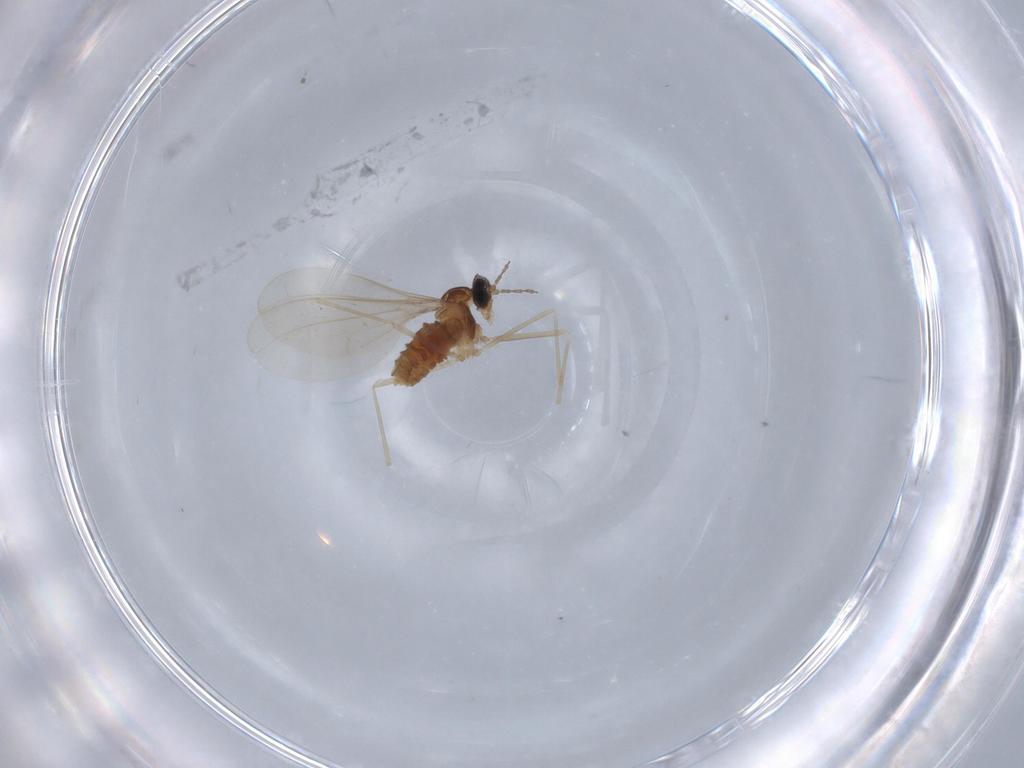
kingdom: Animalia
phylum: Arthropoda
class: Insecta
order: Diptera
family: Cecidomyiidae
